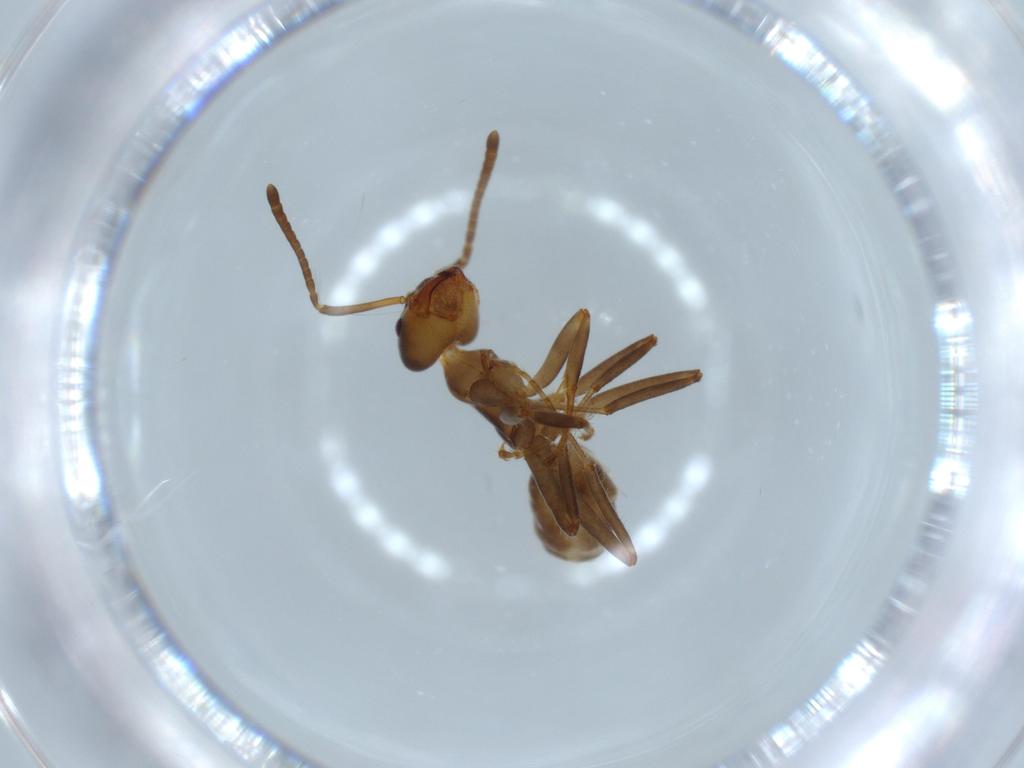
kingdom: Animalia
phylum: Arthropoda
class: Insecta
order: Hymenoptera
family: Formicidae
